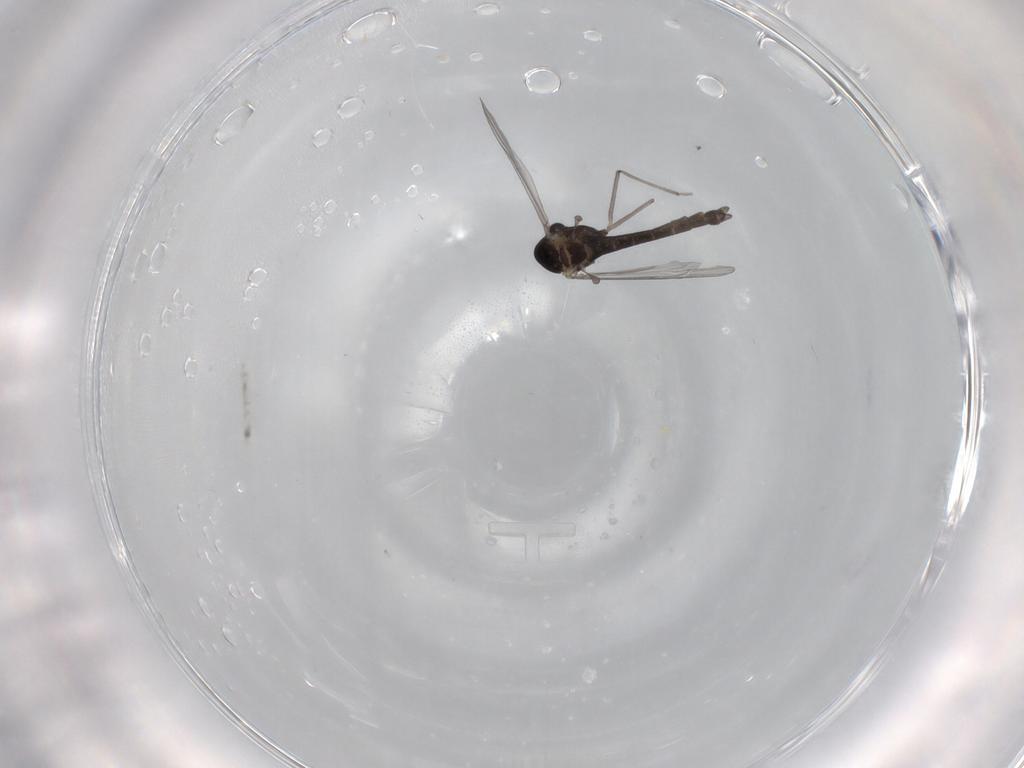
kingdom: Animalia
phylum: Arthropoda
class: Insecta
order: Diptera
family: Chironomidae
